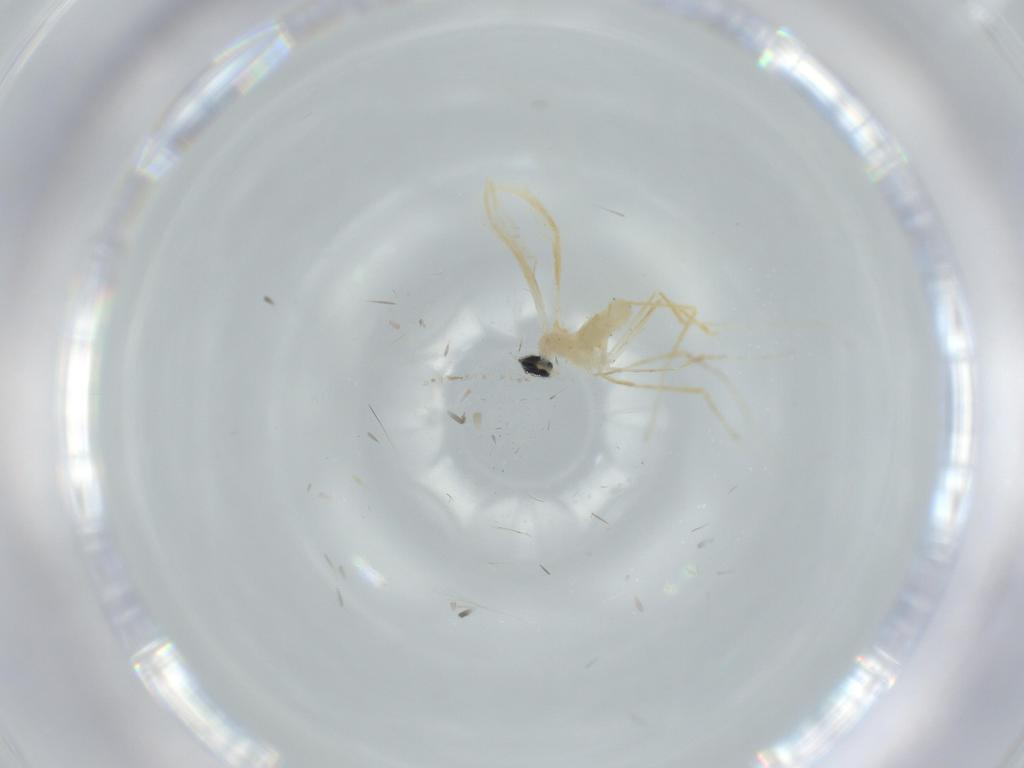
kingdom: Animalia
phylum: Arthropoda
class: Insecta
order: Diptera
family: Cecidomyiidae
